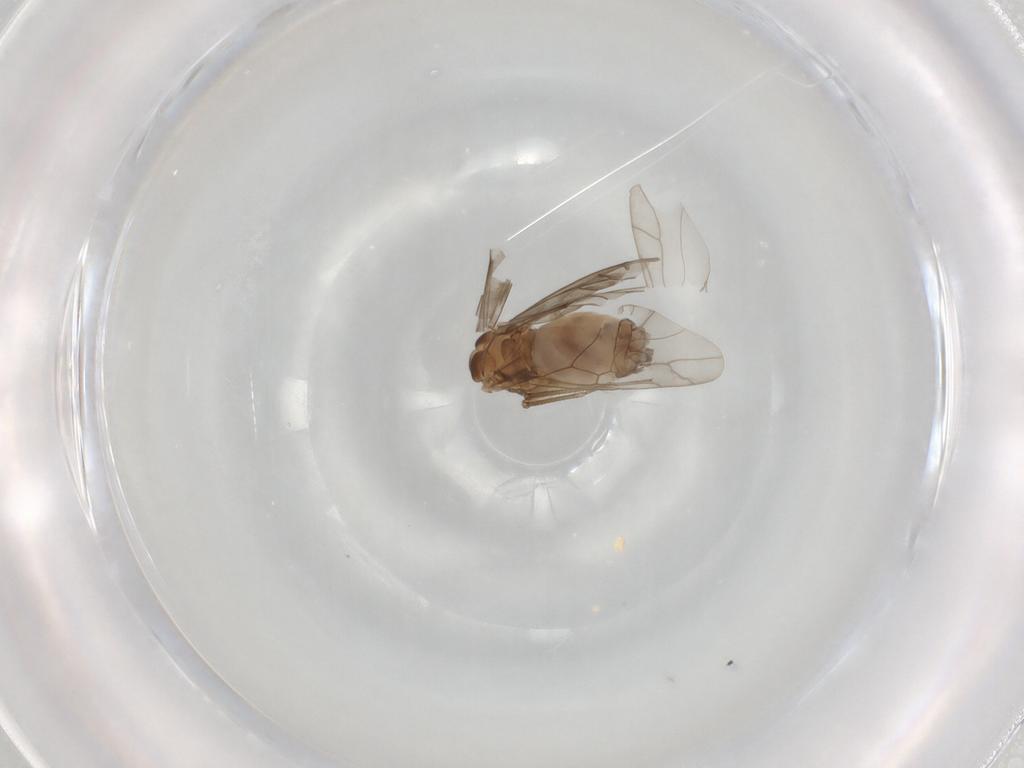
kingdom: Animalia
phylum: Arthropoda
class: Insecta
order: Psocodea
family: Peripsocidae
